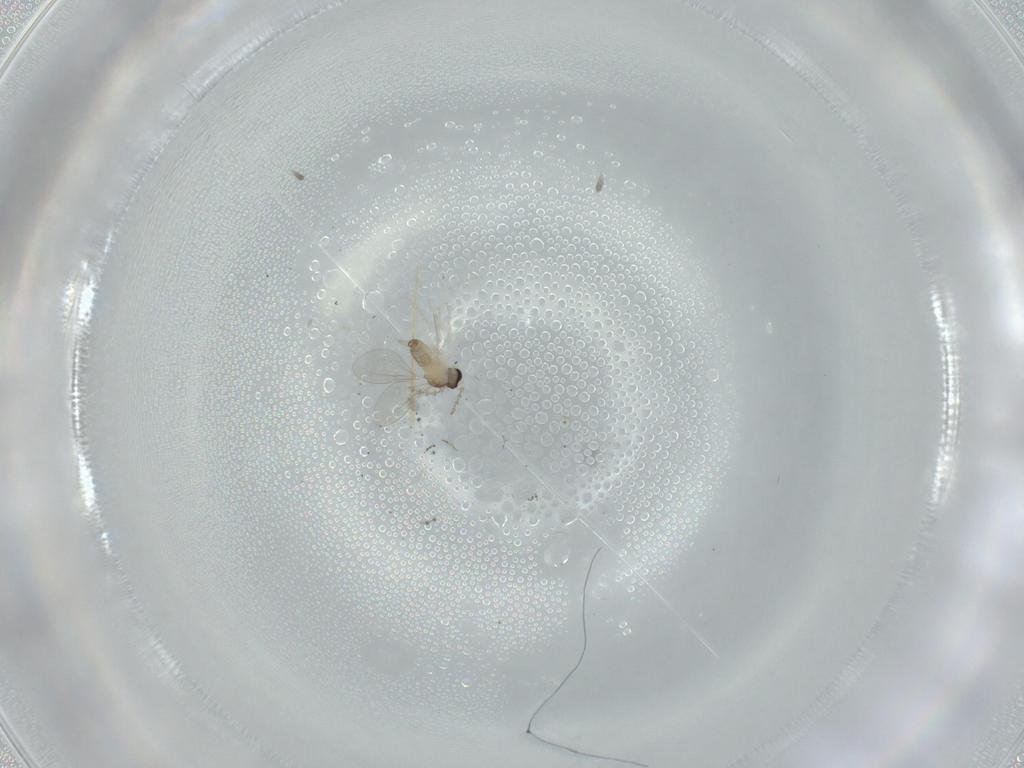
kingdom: Animalia
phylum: Arthropoda
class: Insecta
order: Diptera
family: Cecidomyiidae
